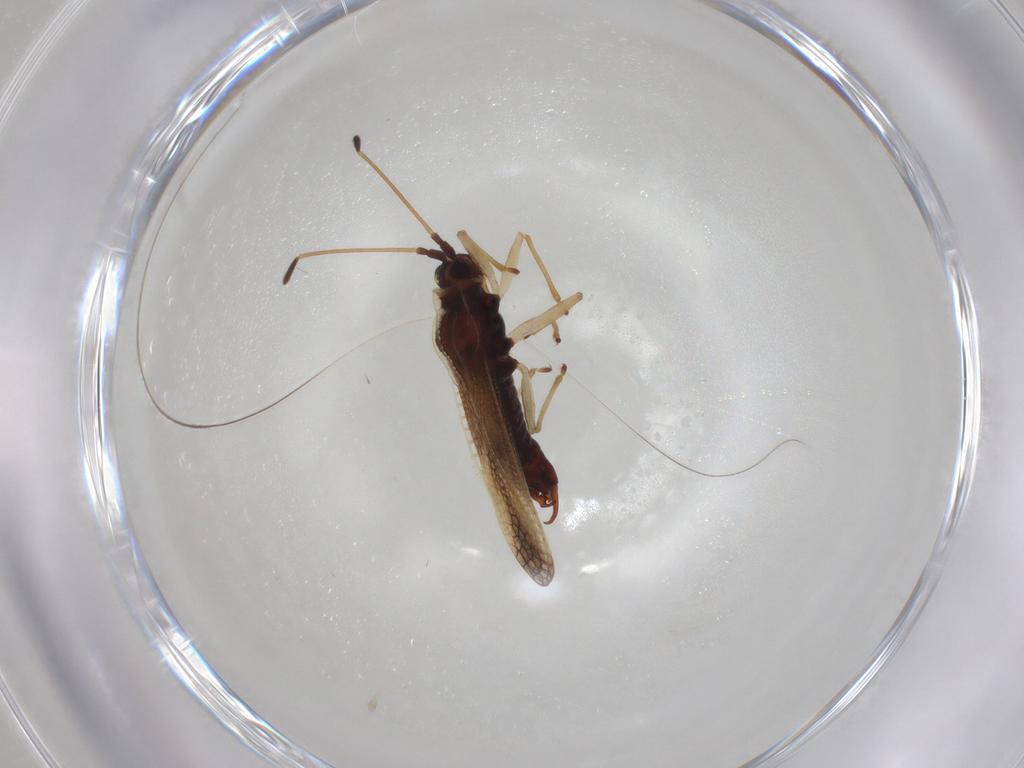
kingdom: Animalia
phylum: Arthropoda
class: Insecta
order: Hemiptera
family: Tingidae
